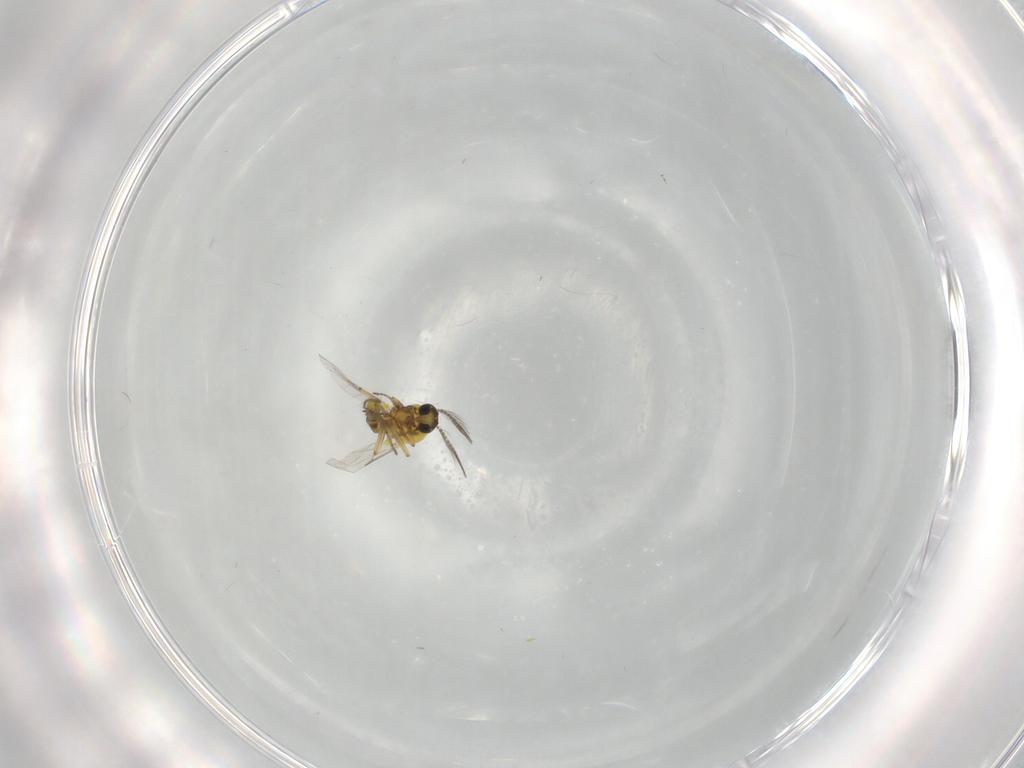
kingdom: Animalia
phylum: Arthropoda
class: Insecta
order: Diptera
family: Ceratopogonidae
